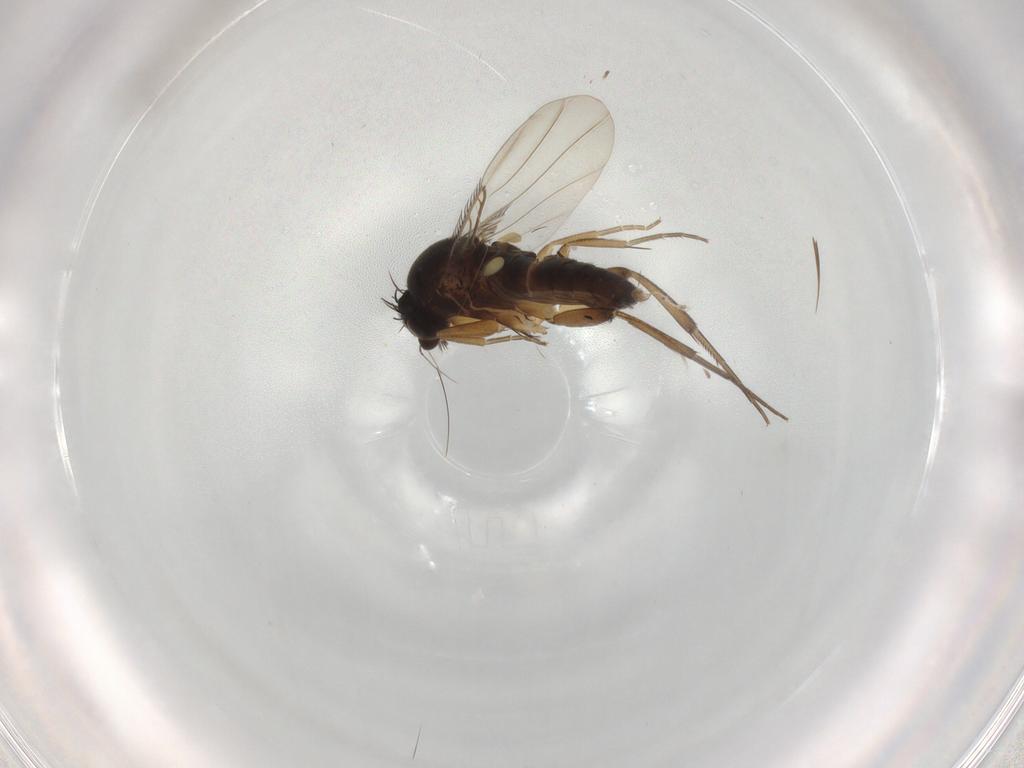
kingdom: Animalia
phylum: Arthropoda
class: Insecta
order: Diptera
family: Phoridae
